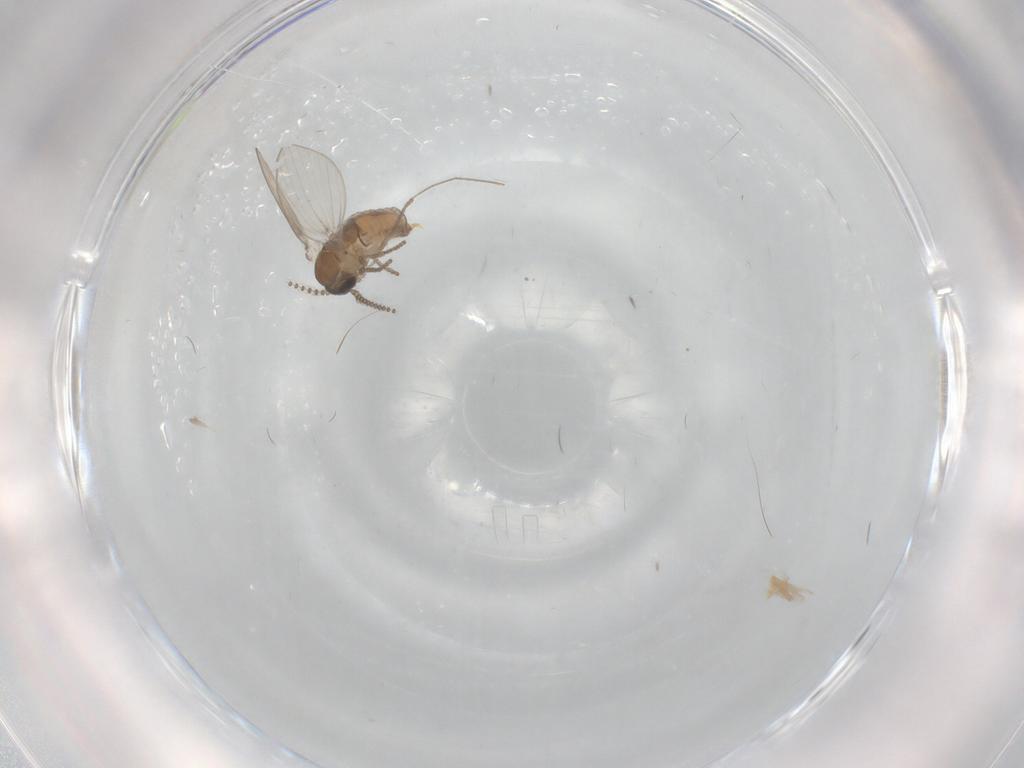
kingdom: Animalia
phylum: Arthropoda
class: Insecta
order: Diptera
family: Psychodidae
